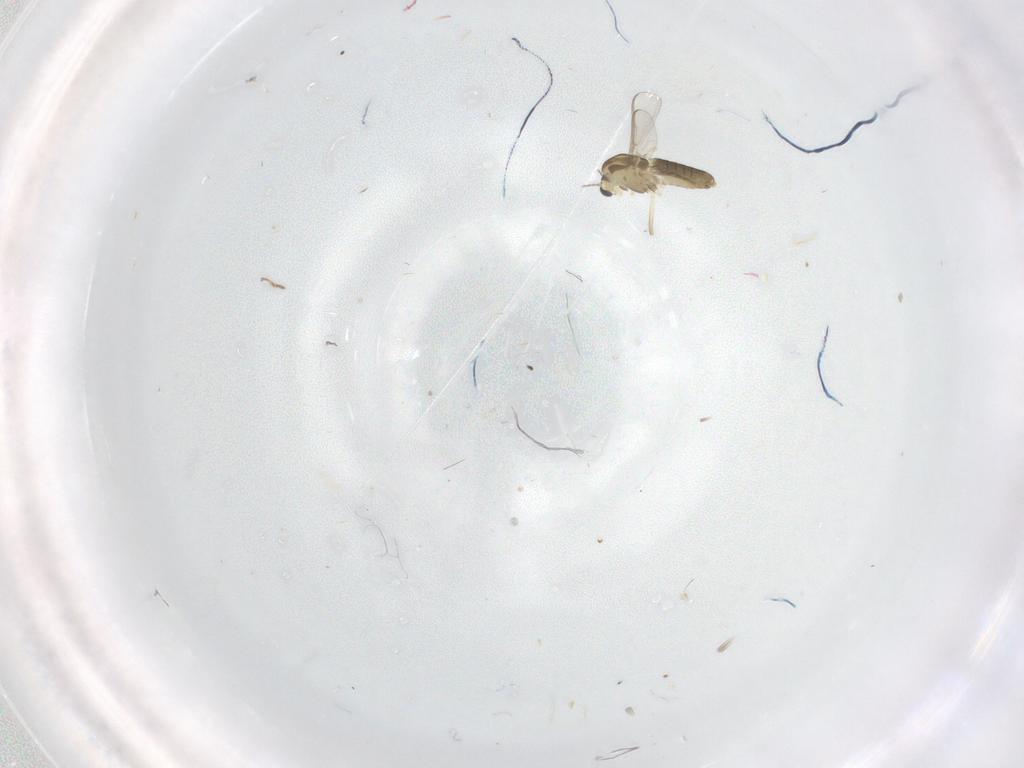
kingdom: Animalia
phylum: Arthropoda
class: Insecta
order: Diptera
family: Stratiomyidae
